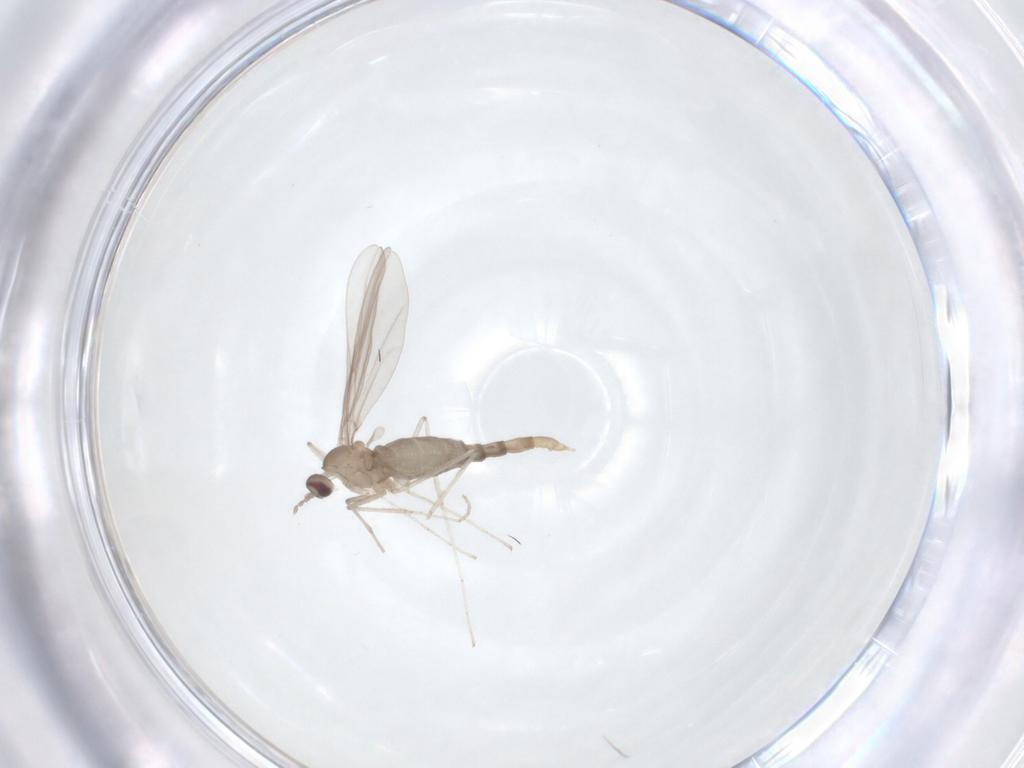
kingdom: Animalia
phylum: Arthropoda
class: Insecta
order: Diptera
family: Cecidomyiidae
